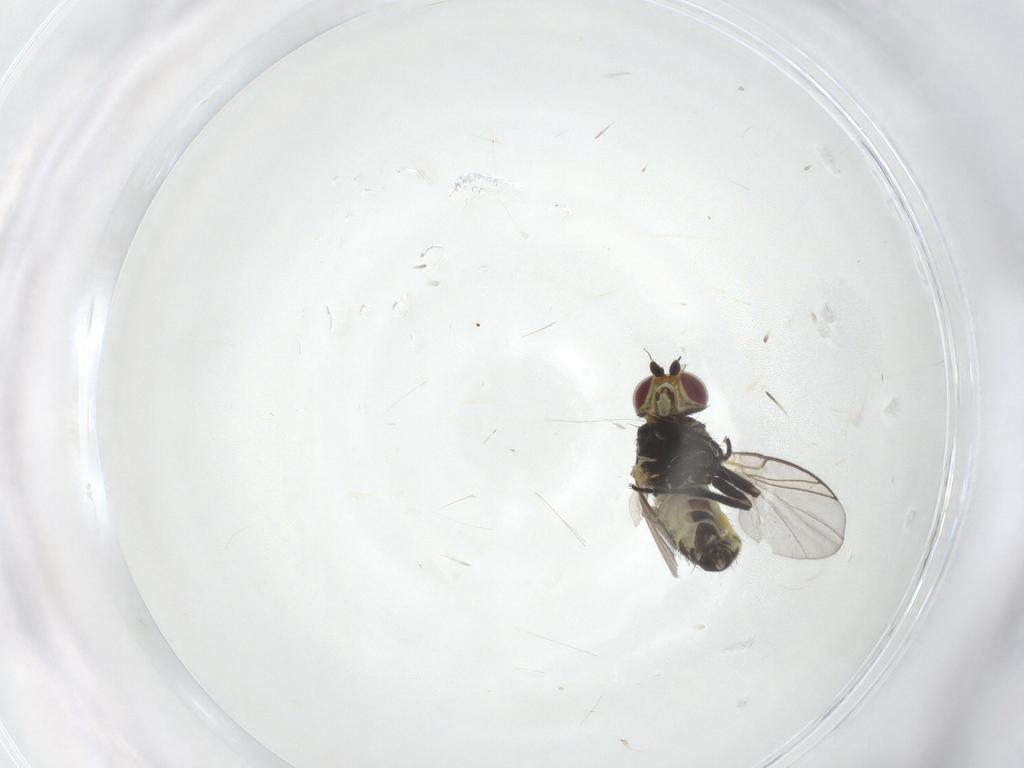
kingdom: Animalia
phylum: Arthropoda
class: Insecta
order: Diptera
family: Agromyzidae
